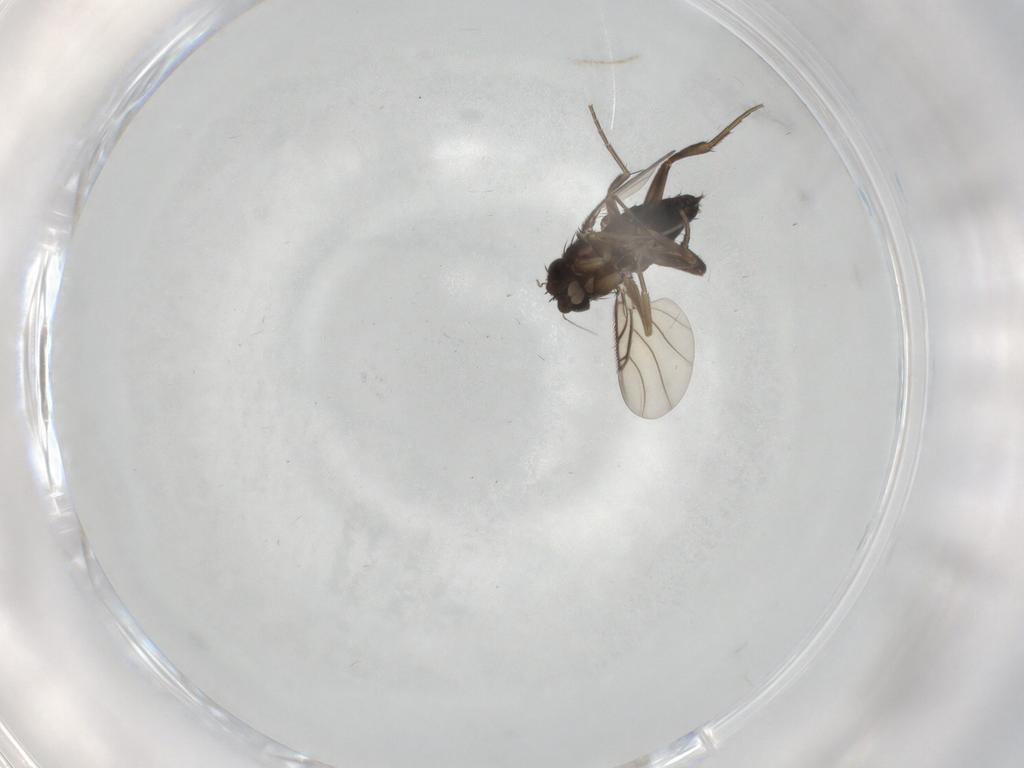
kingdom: Animalia
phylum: Arthropoda
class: Insecta
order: Diptera
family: Phoridae
